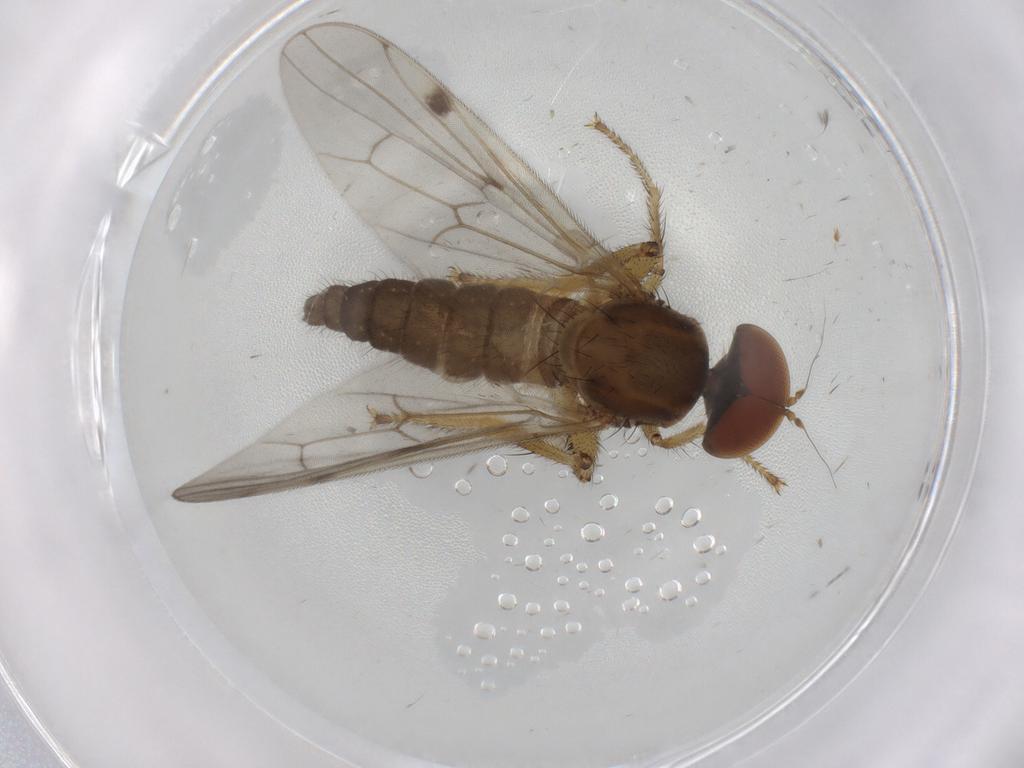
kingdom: Animalia
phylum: Arthropoda
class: Insecta
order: Diptera
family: Hybotidae
